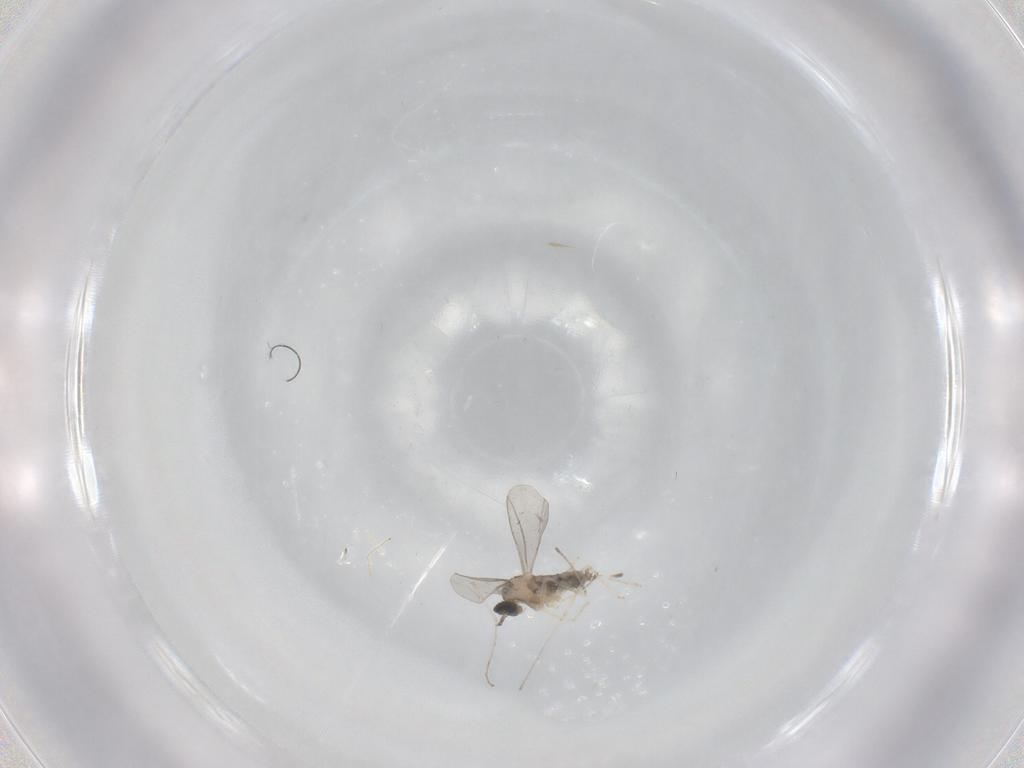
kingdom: Animalia
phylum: Arthropoda
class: Insecta
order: Diptera
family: Cecidomyiidae
